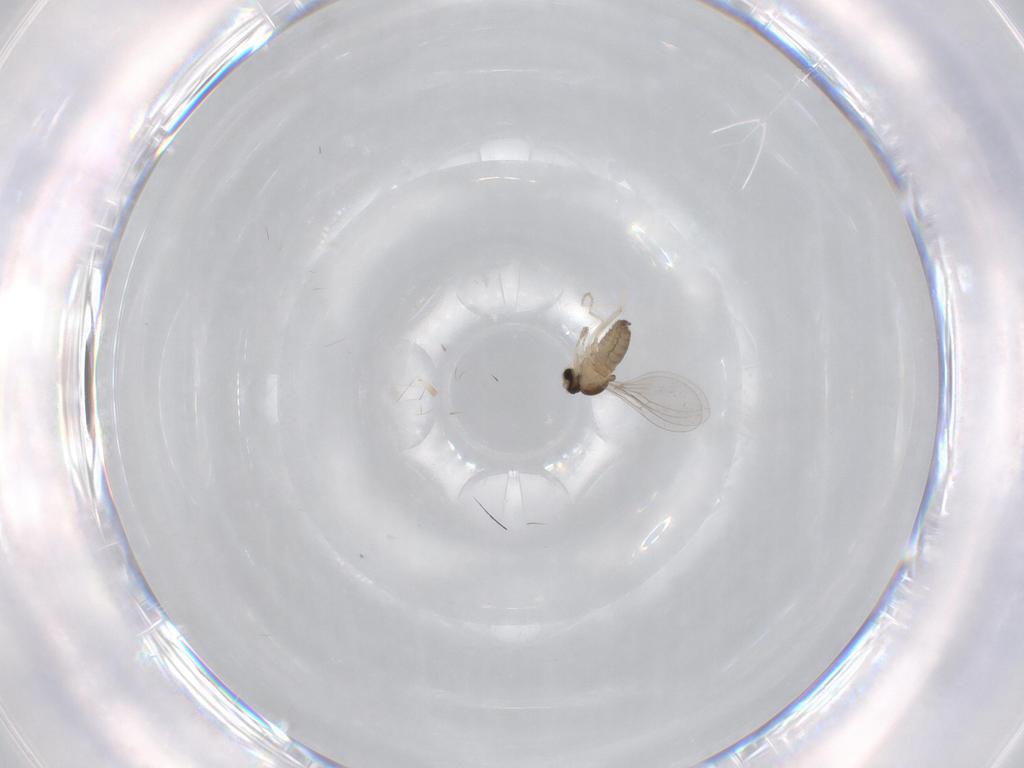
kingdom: Animalia
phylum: Arthropoda
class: Insecta
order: Diptera
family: Cecidomyiidae
